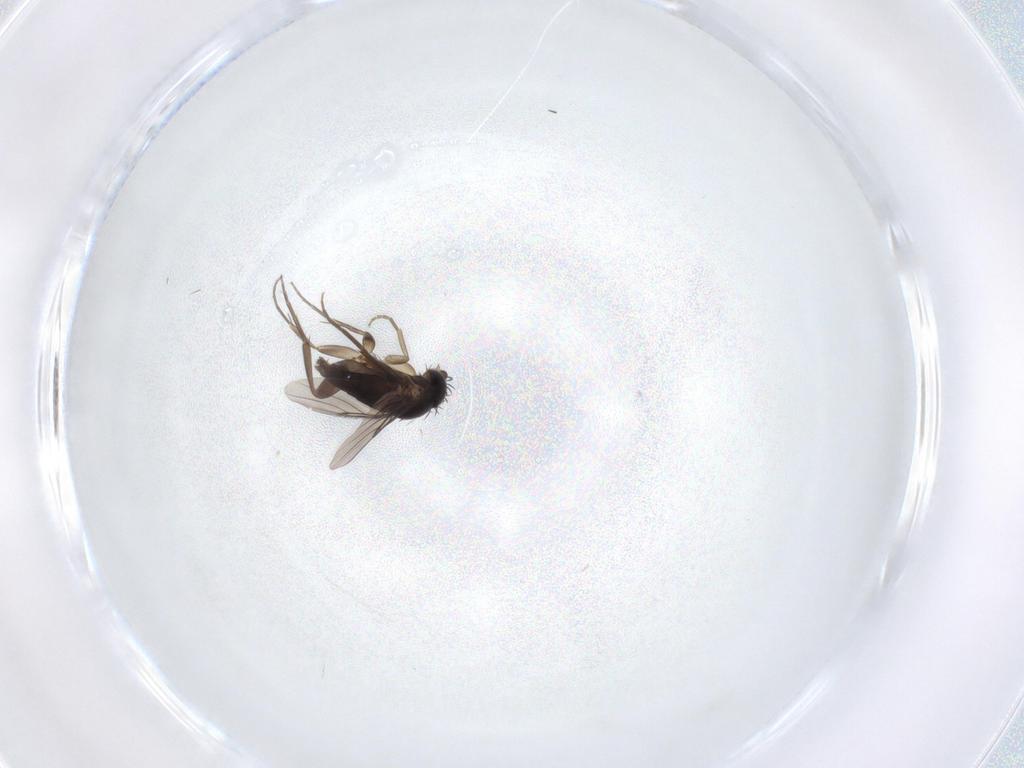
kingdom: Animalia
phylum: Arthropoda
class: Insecta
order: Diptera
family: Phoridae
